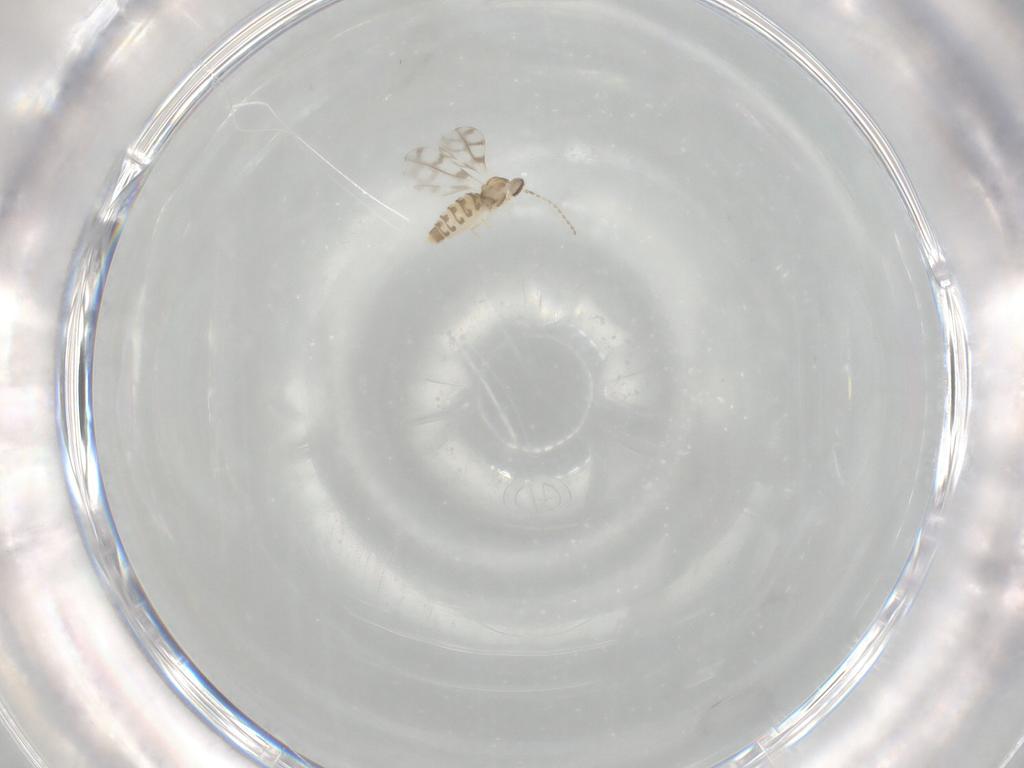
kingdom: Animalia
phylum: Arthropoda
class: Insecta
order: Diptera
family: Cecidomyiidae
